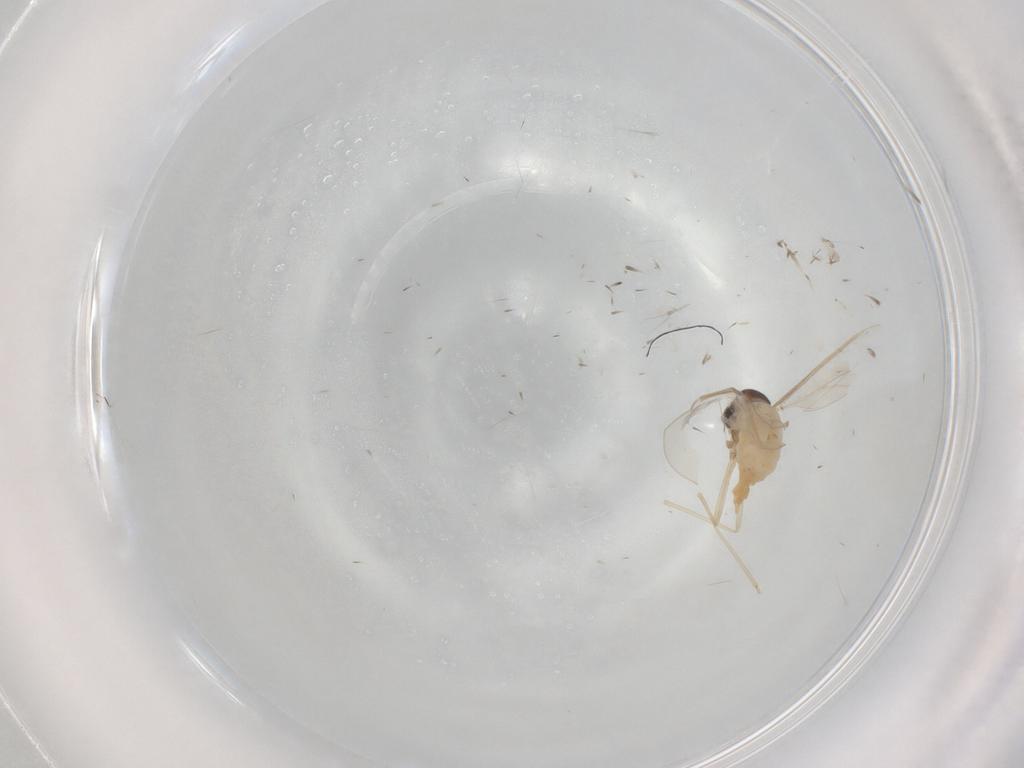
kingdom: Animalia
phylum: Arthropoda
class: Insecta
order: Diptera
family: Cecidomyiidae
